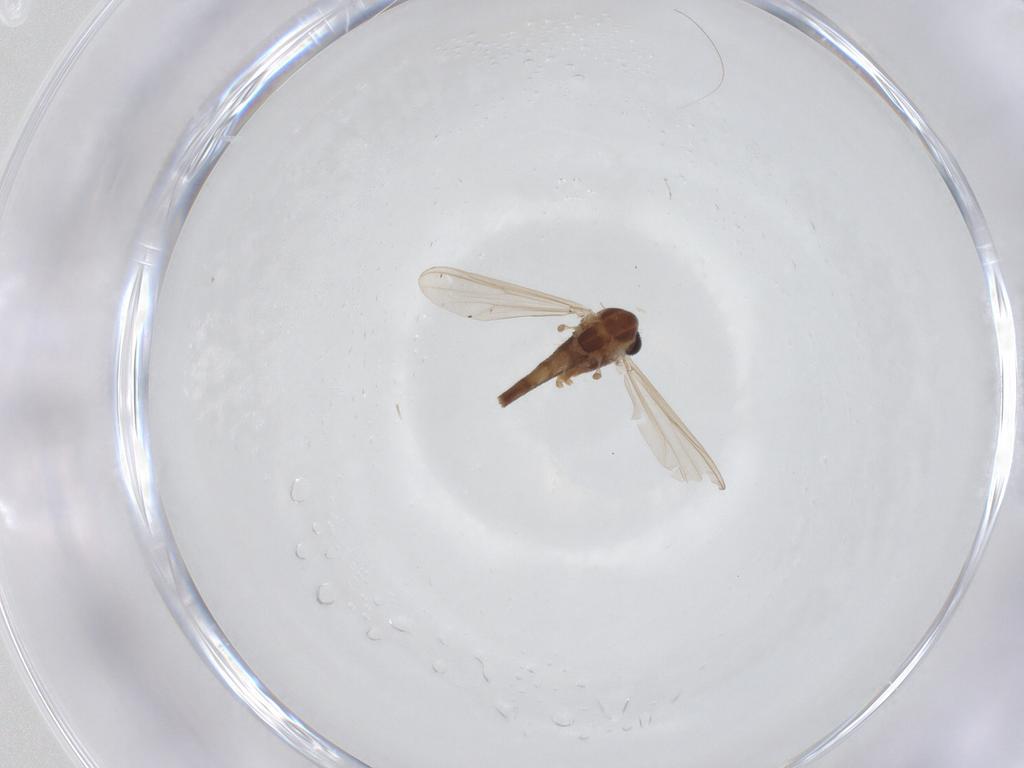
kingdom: Animalia
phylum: Arthropoda
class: Insecta
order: Diptera
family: Chironomidae
